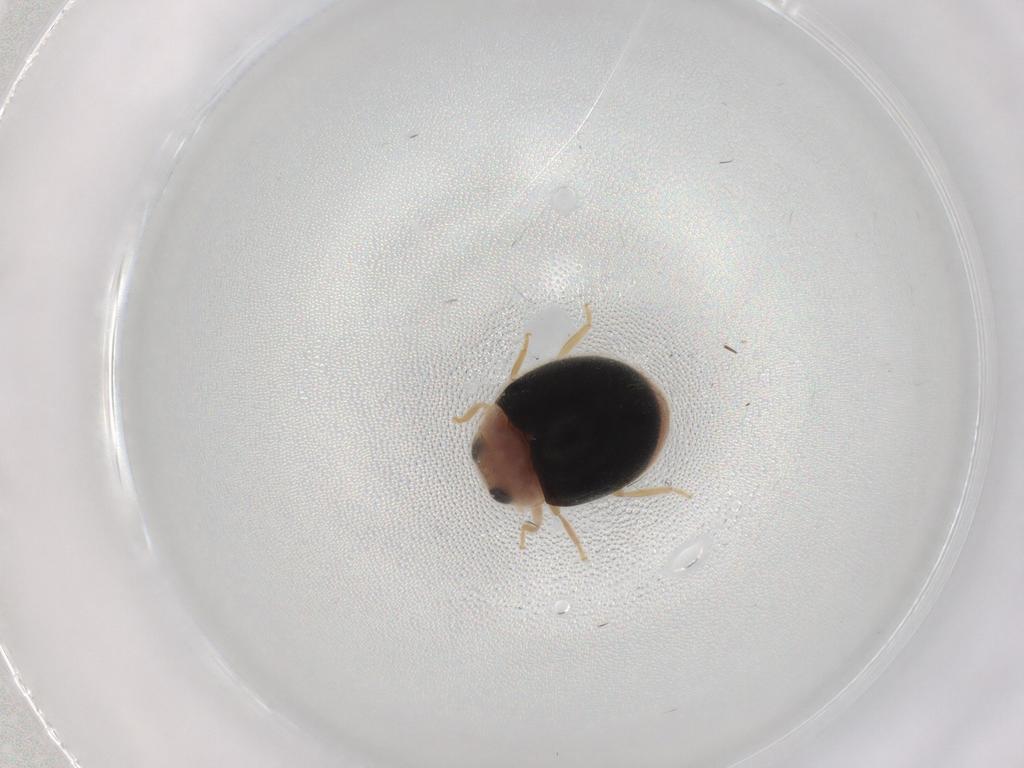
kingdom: Animalia
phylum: Arthropoda
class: Insecta
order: Coleoptera
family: Coccinellidae
